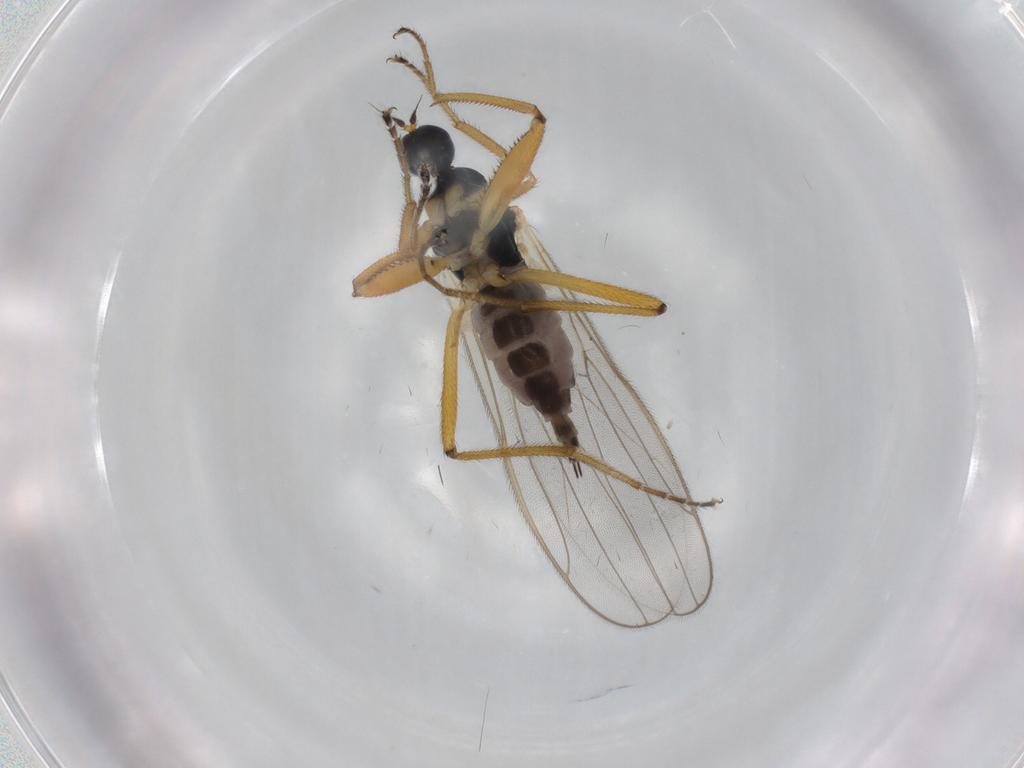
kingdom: Animalia
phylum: Arthropoda
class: Insecta
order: Diptera
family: Hybotidae
